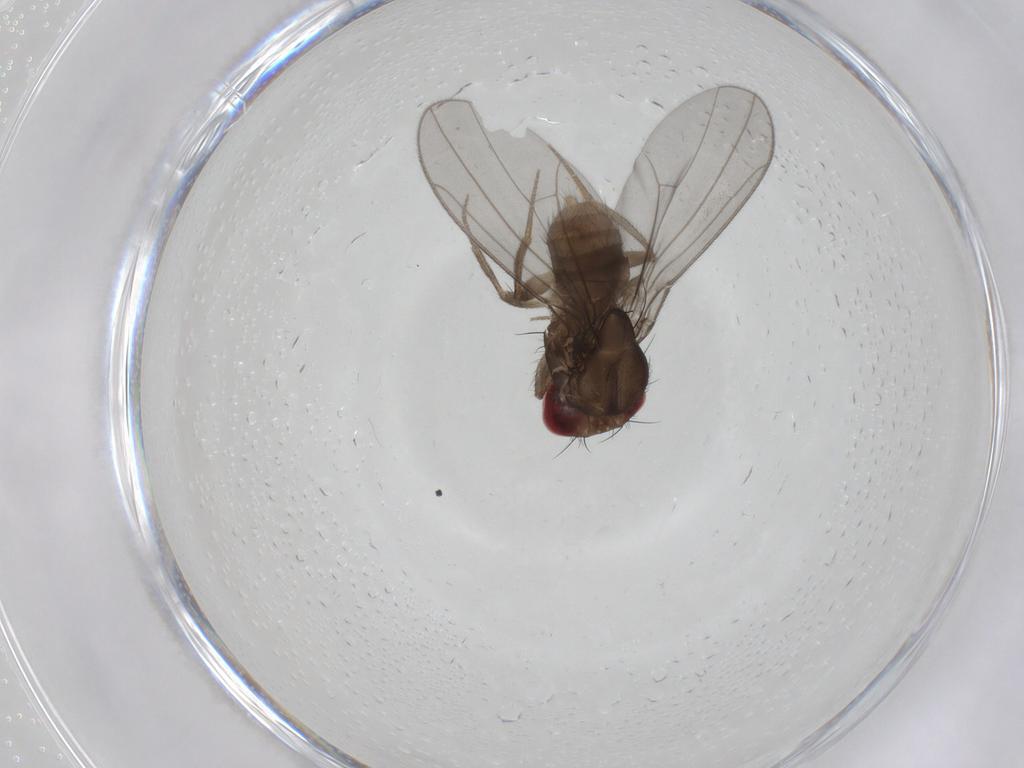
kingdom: Animalia
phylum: Arthropoda
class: Insecta
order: Diptera
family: Drosophilidae
